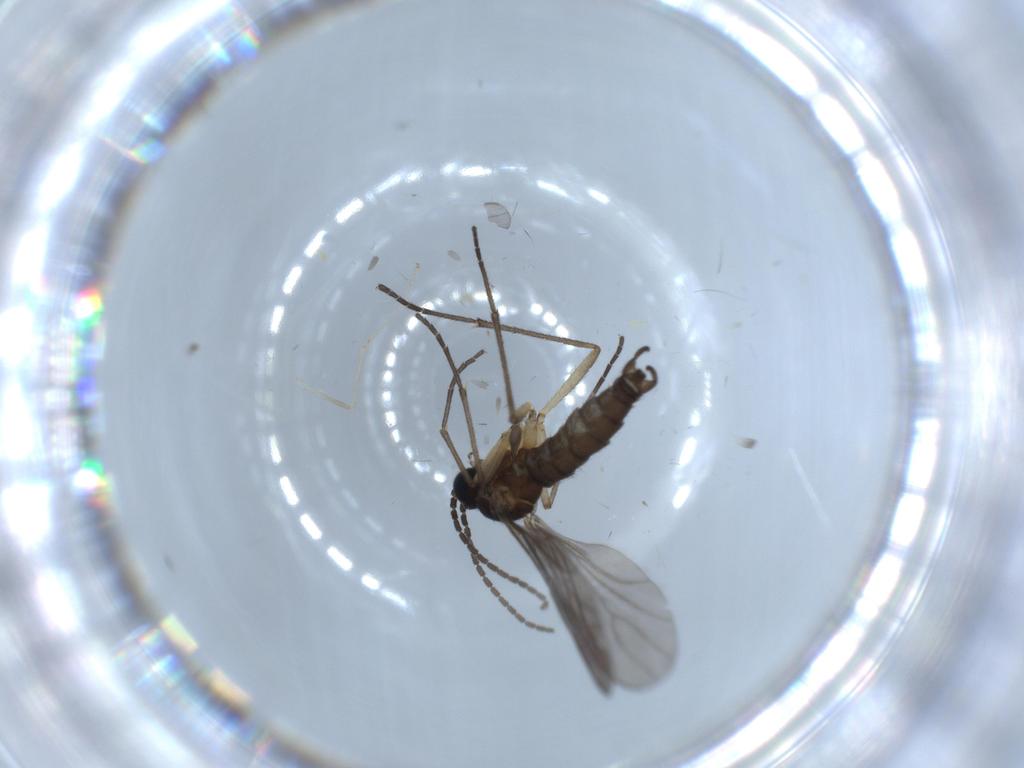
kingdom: Animalia
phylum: Arthropoda
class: Insecta
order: Diptera
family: Sciaridae
